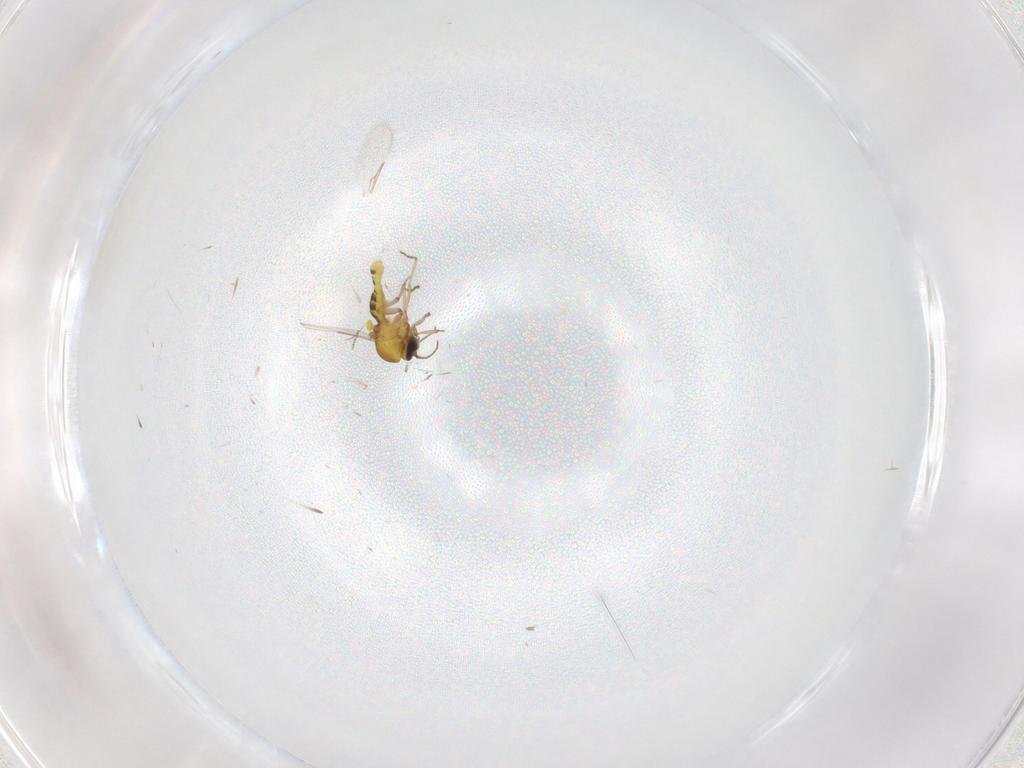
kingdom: Animalia
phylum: Arthropoda
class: Insecta
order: Diptera
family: Ceratopogonidae
